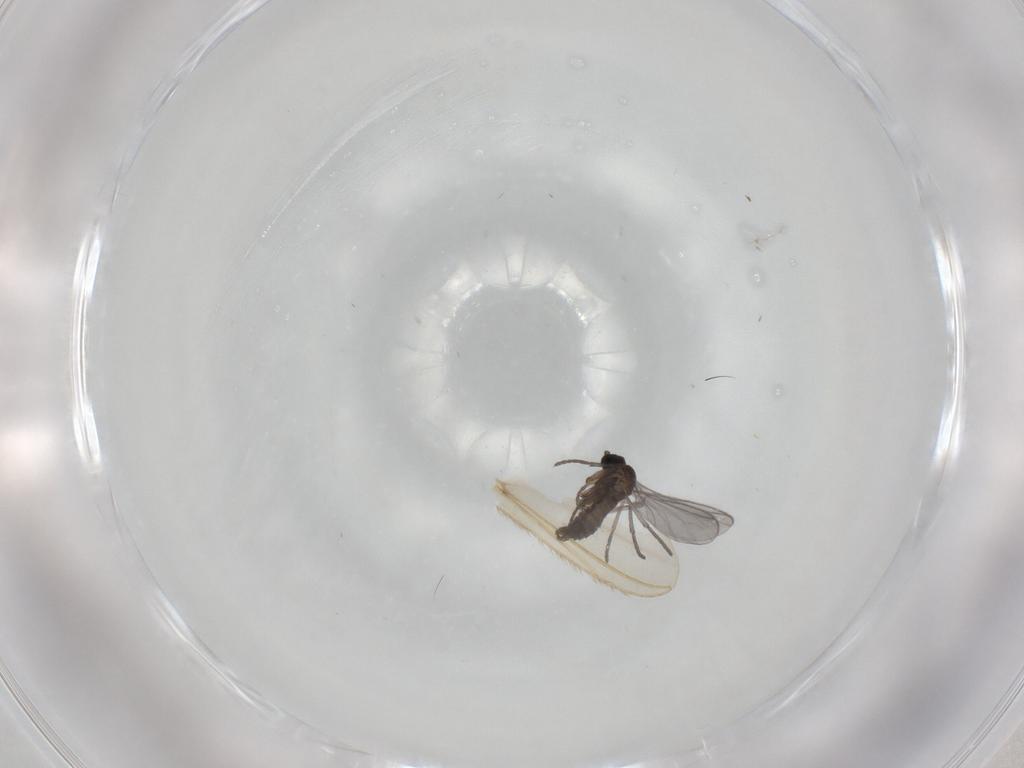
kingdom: Animalia
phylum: Arthropoda
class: Insecta
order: Diptera
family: Chironomidae
